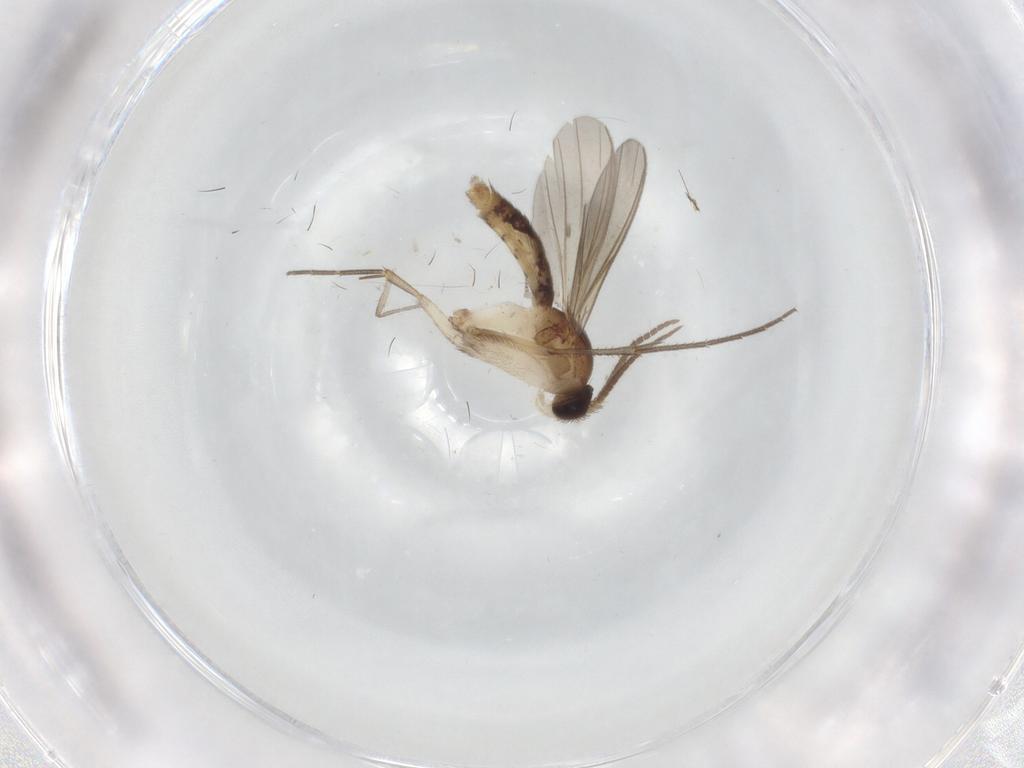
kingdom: Animalia
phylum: Arthropoda
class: Insecta
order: Diptera
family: Mycetophilidae
